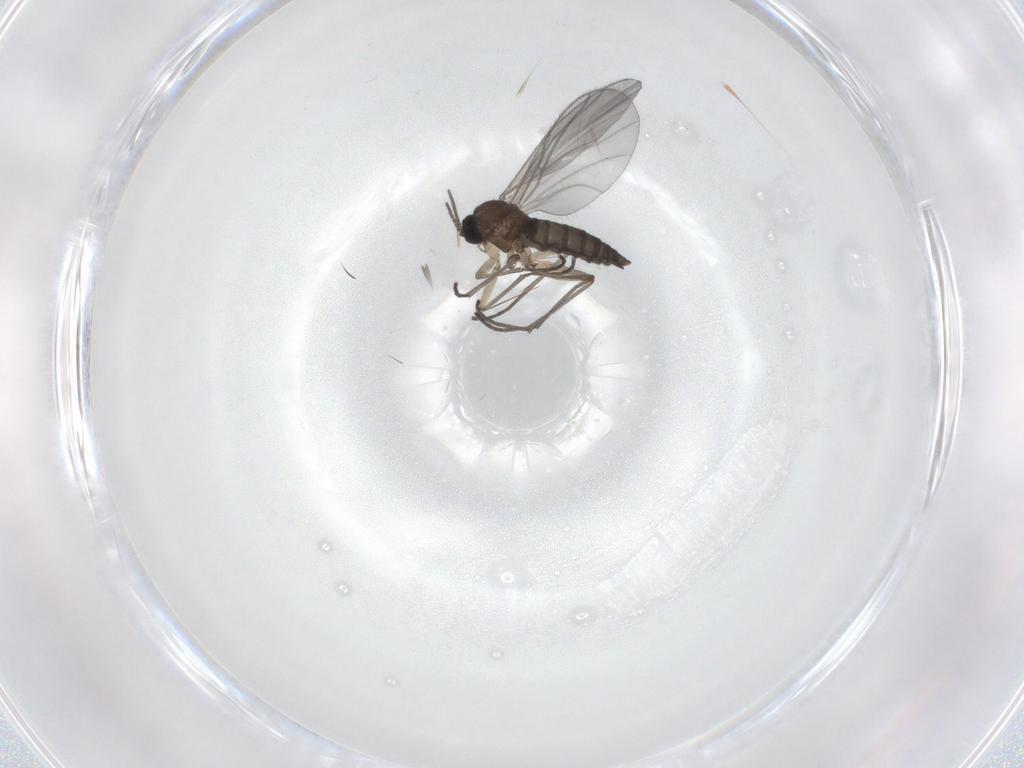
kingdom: Animalia
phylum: Arthropoda
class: Insecta
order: Diptera
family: Sciaridae
